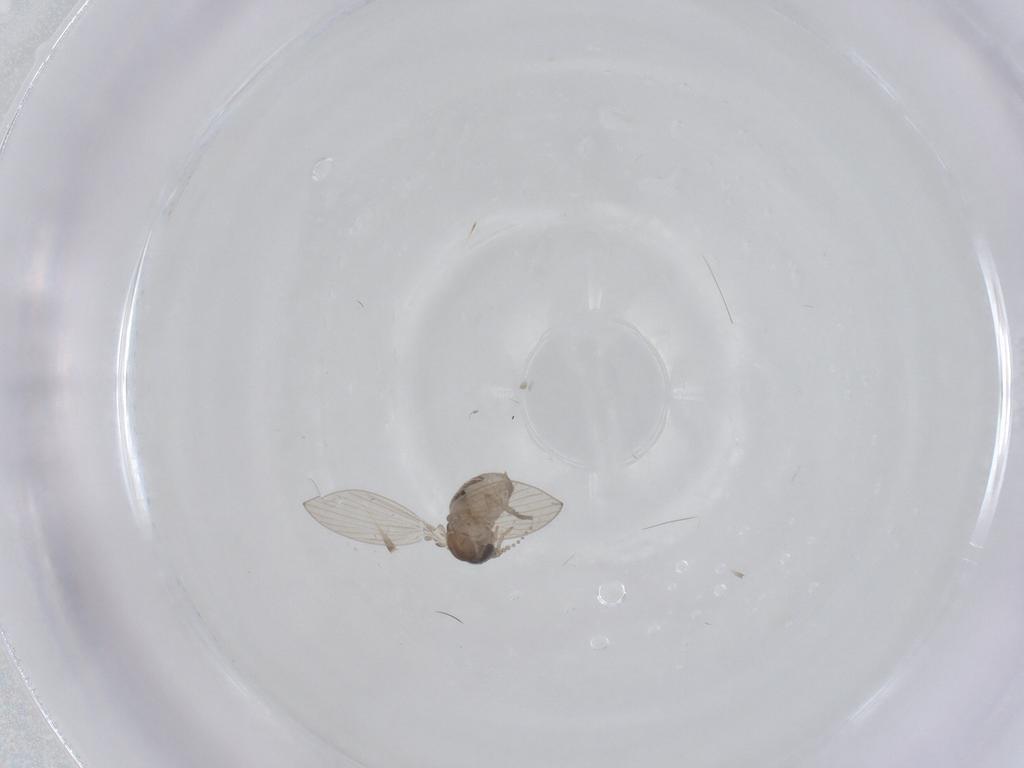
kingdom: Animalia
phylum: Arthropoda
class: Insecta
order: Diptera
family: Psychodidae
